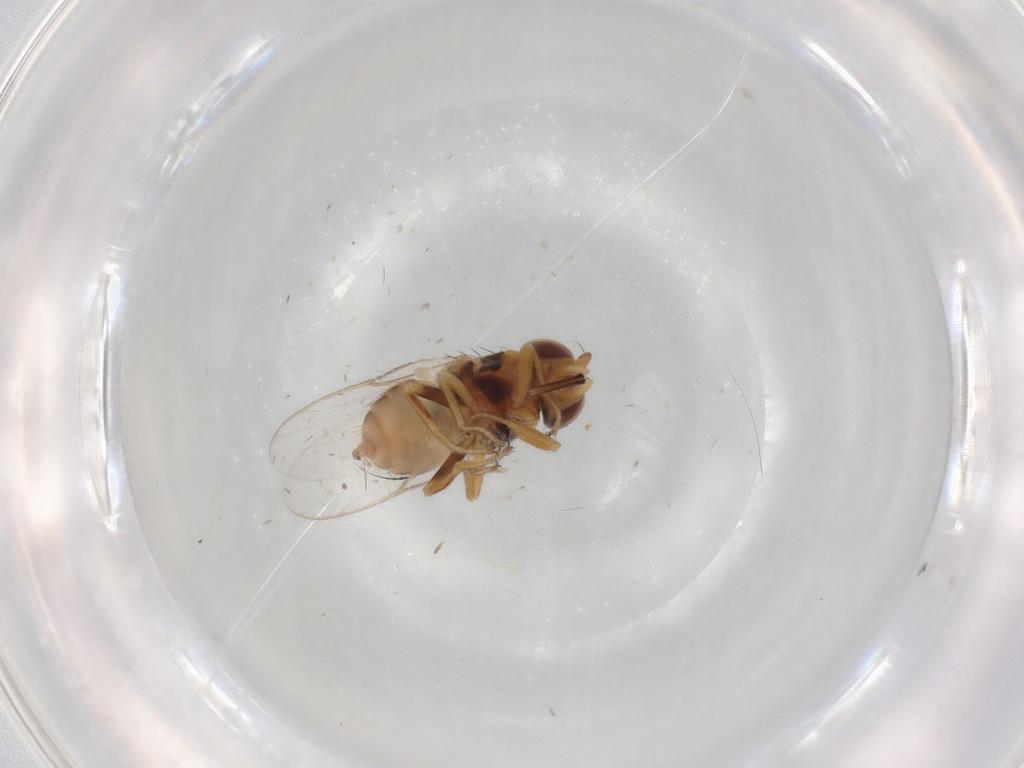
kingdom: Animalia
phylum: Arthropoda
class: Insecta
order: Diptera
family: Chloropidae
